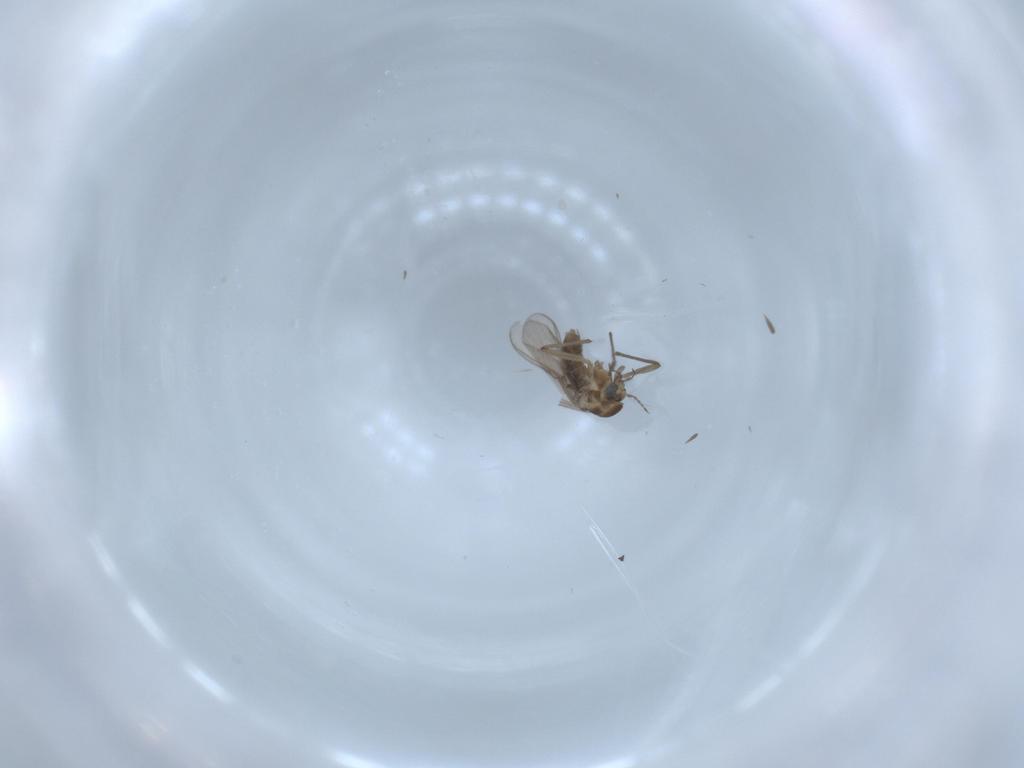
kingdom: Animalia
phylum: Arthropoda
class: Insecta
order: Diptera
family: Chironomidae
